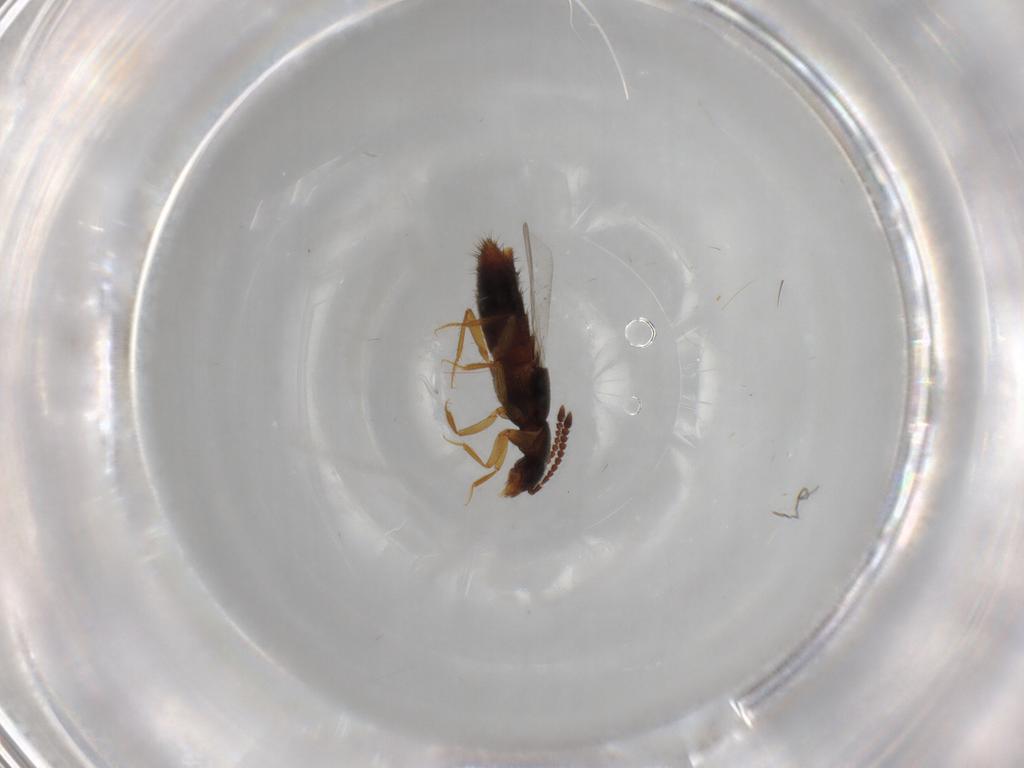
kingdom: Animalia
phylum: Arthropoda
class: Insecta
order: Coleoptera
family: Staphylinidae
